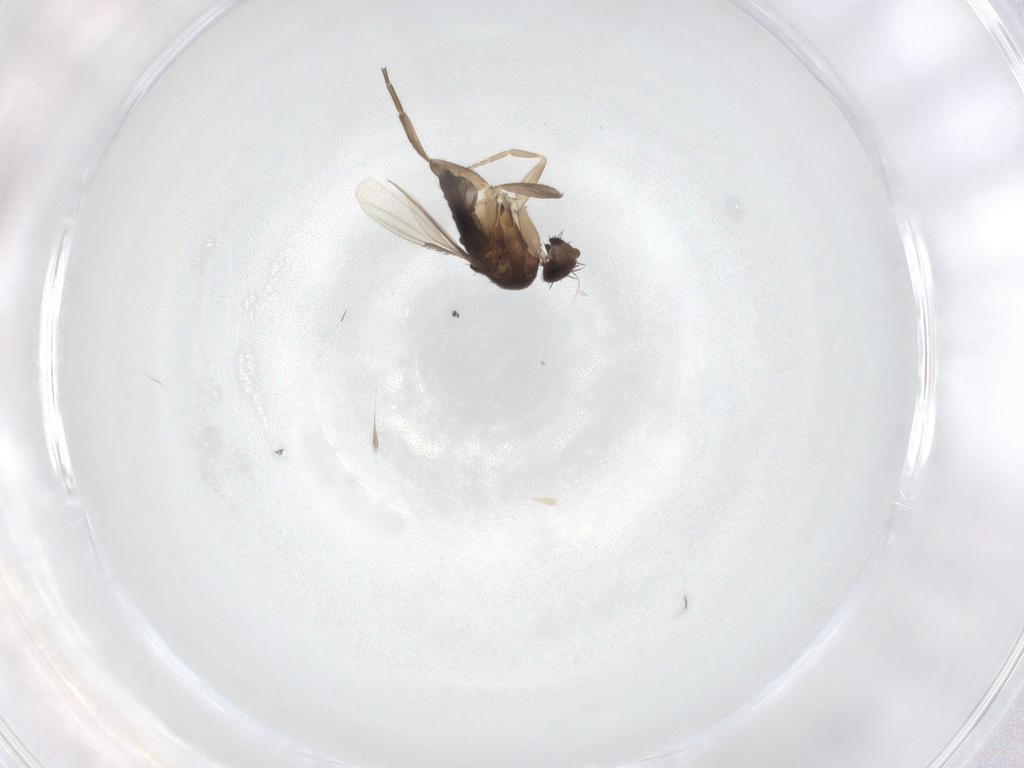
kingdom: Animalia
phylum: Arthropoda
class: Insecta
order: Diptera
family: Phoridae
